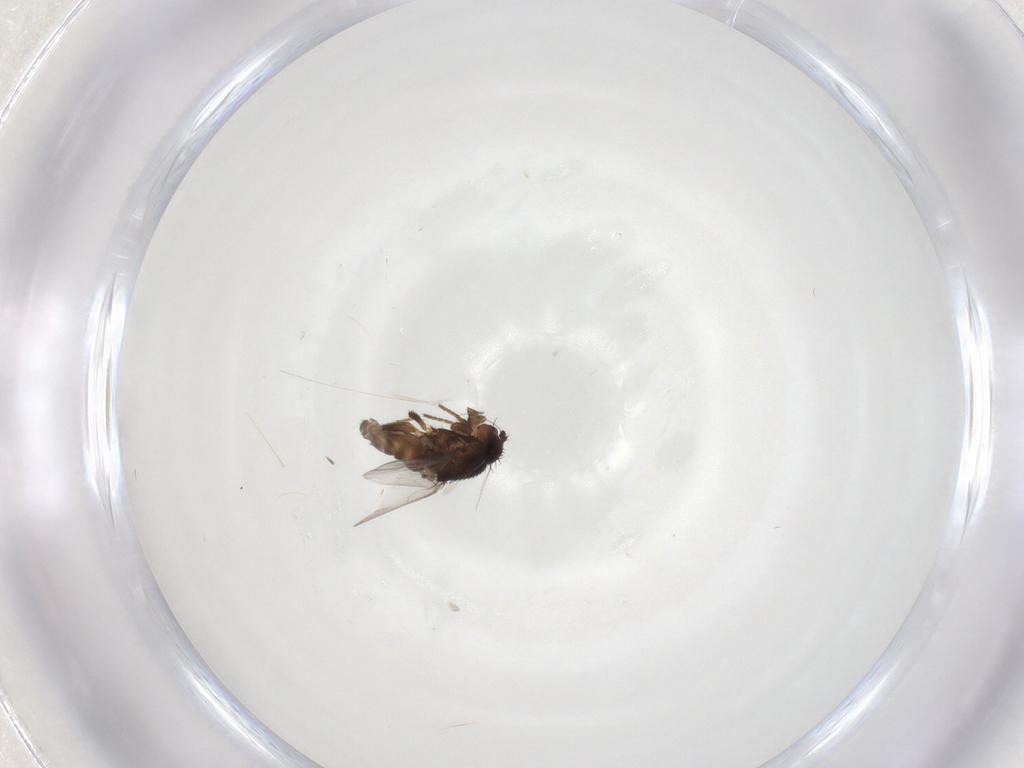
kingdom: Animalia
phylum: Arthropoda
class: Insecta
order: Diptera
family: Sphaeroceridae
